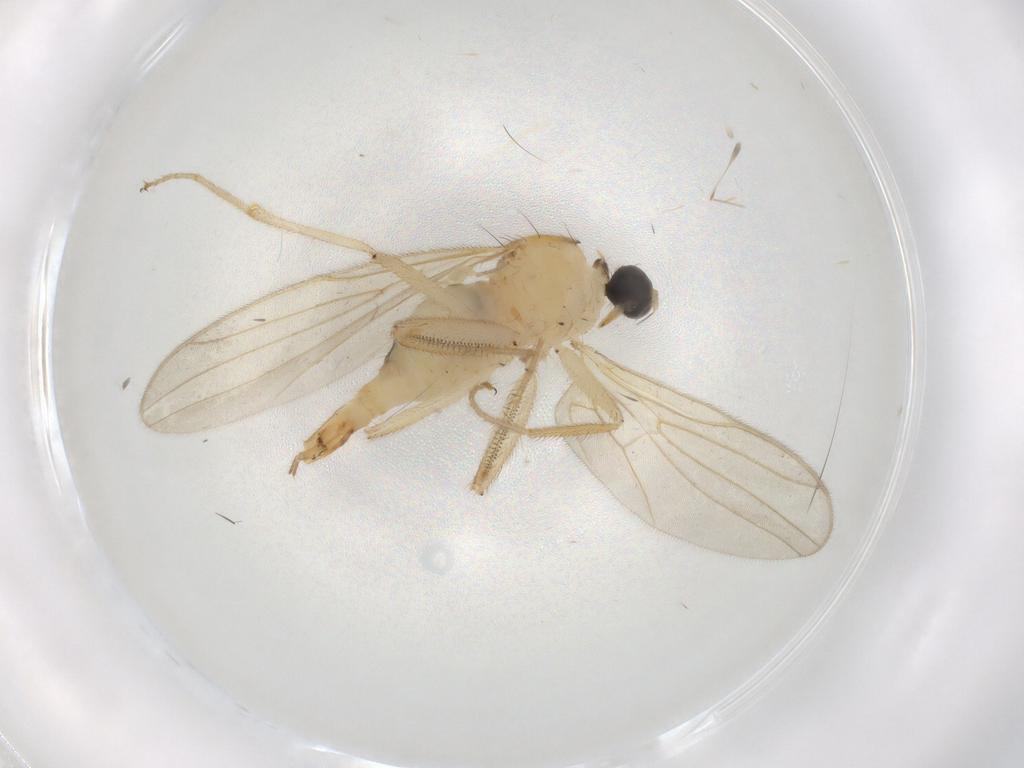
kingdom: Animalia
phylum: Arthropoda
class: Insecta
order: Diptera
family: Hybotidae
